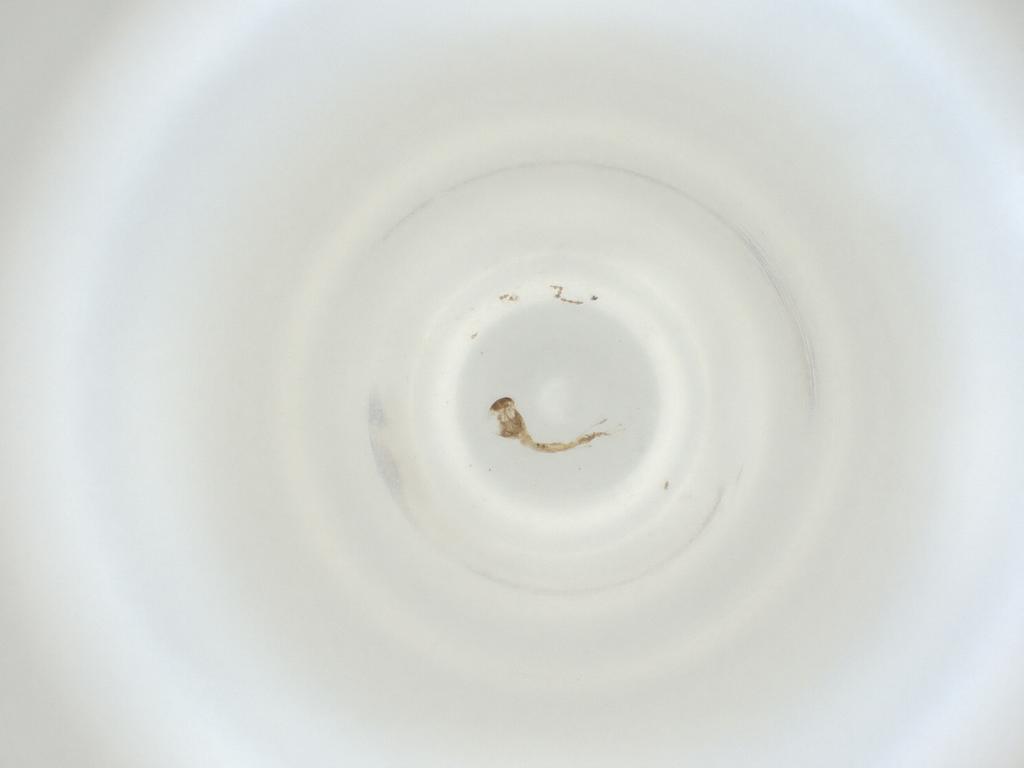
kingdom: Animalia
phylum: Arthropoda
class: Insecta
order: Diptera
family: Cecidomyiidae
